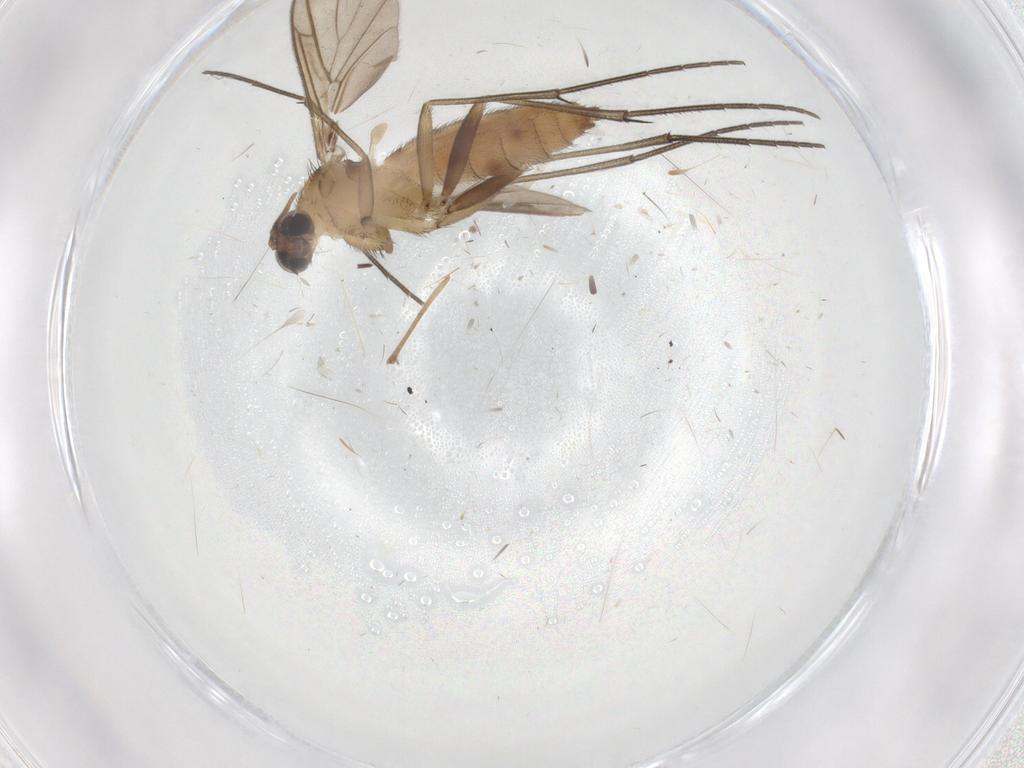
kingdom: Animalia
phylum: Arthropoda
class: Insecta
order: Diptera
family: Keroplatidae
